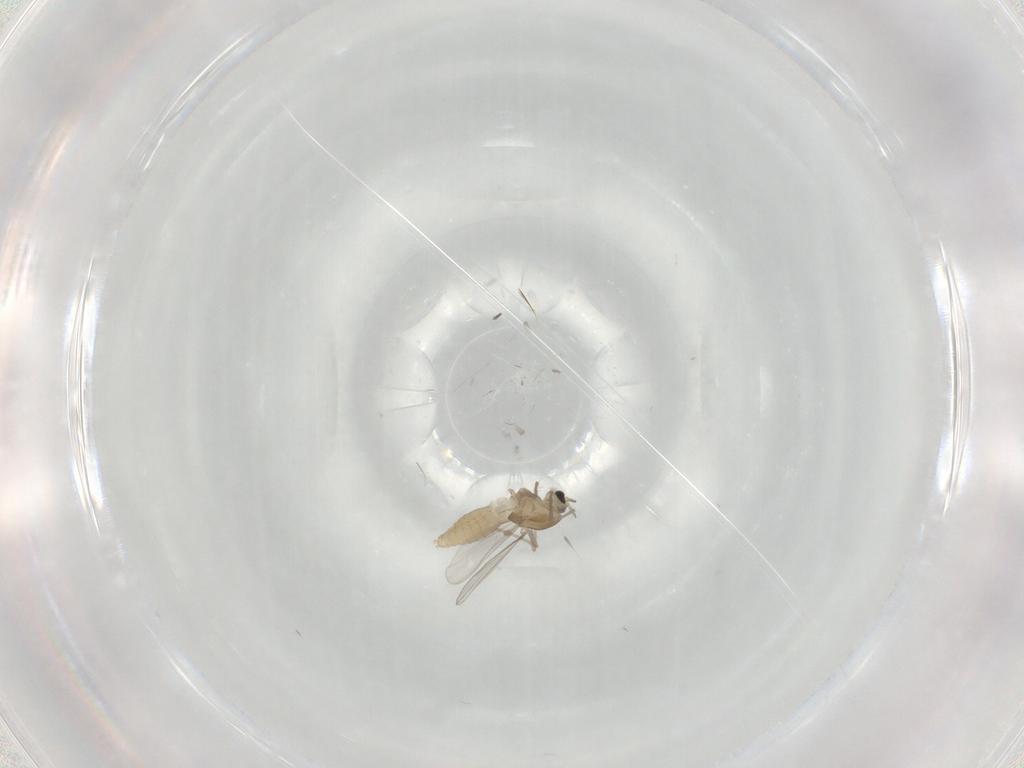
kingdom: Animalia
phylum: Arthropoda
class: Insecta
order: Diptera
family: Chironomidae
